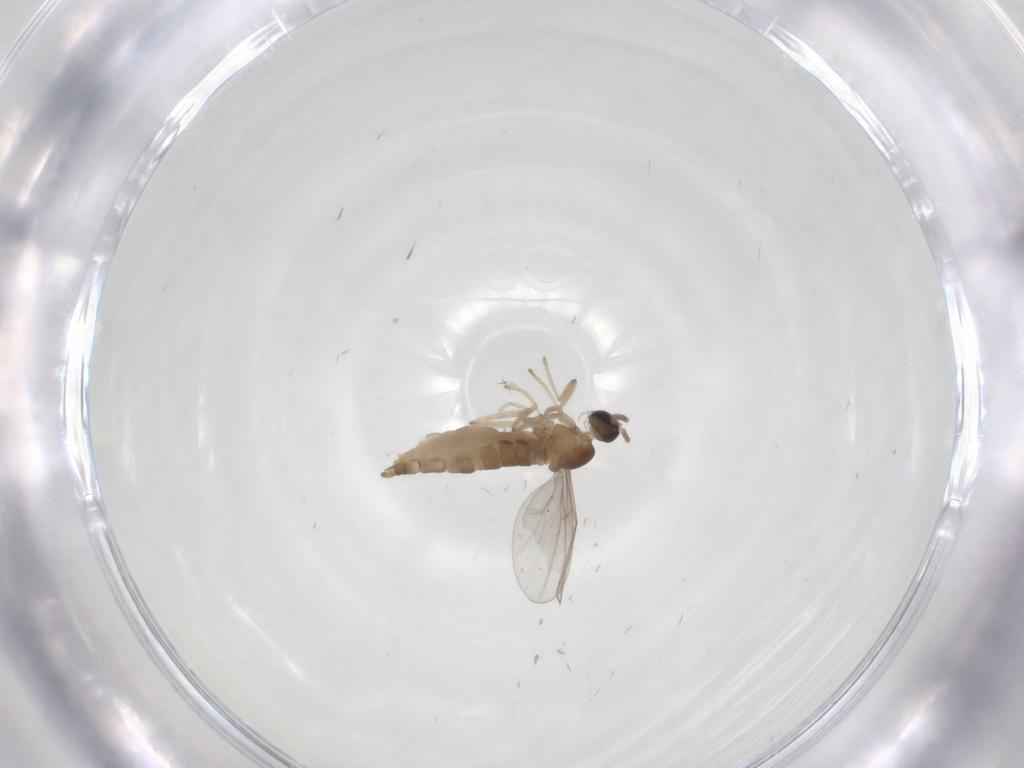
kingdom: Animalia
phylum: Arthropoda
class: Insecta
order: Diptera
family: Cecidomyiidae
